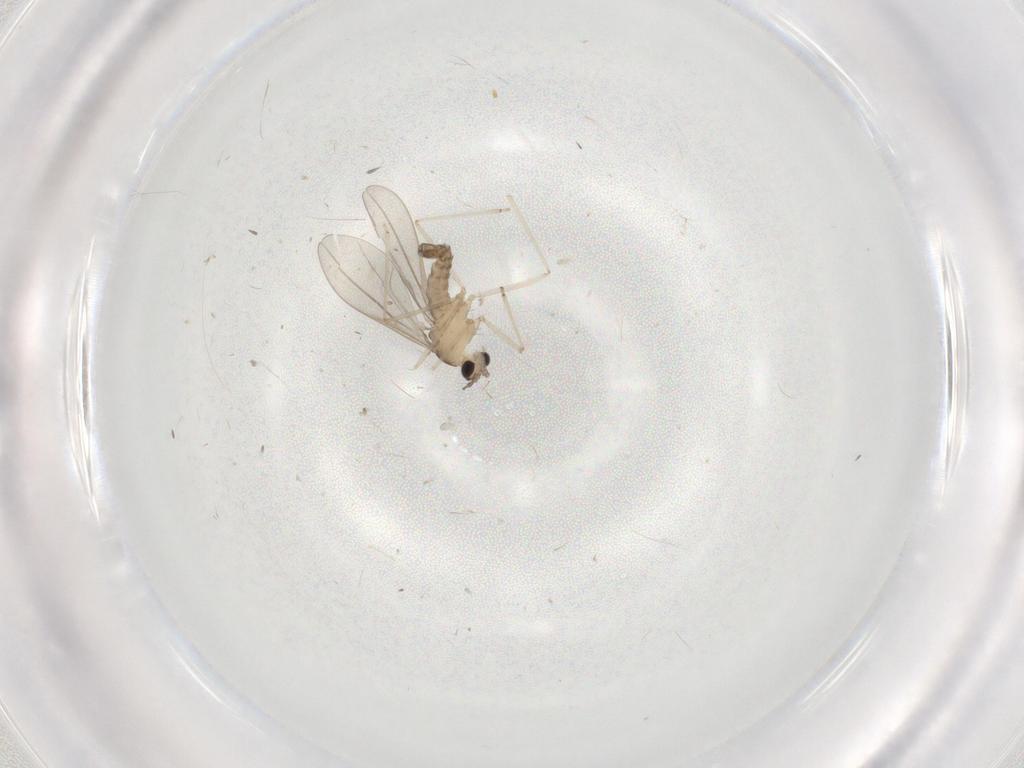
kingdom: Animalia
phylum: Arthropoda
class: Insecta
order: Diptera
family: Cecidomyiidae
